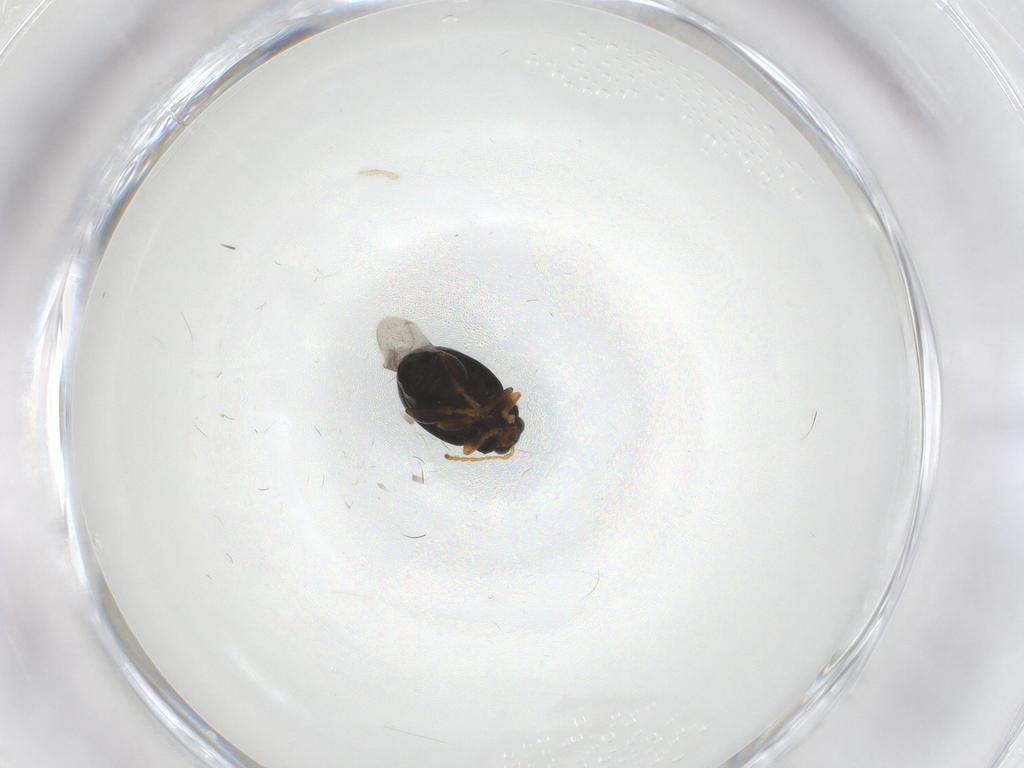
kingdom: Animalia
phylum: Arthropoda
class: Insecta
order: Coleoptera
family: Chrysomelidae
